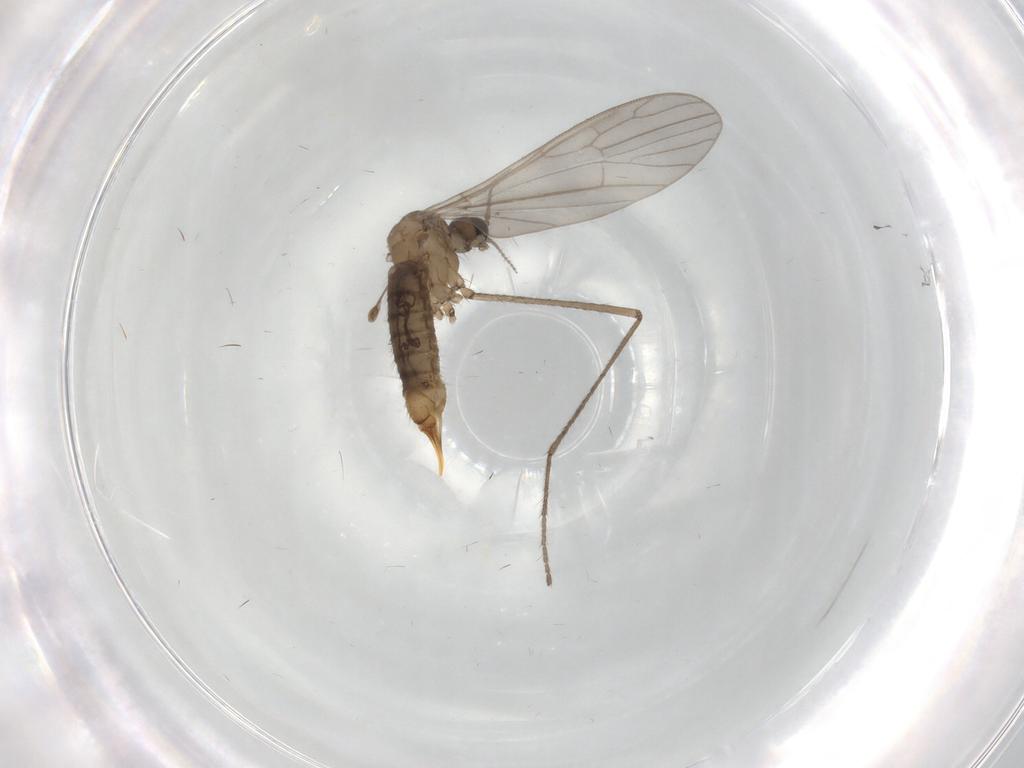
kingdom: Animalia
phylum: Arthropoda
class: Insecta
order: Diptera
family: Limoniidae
